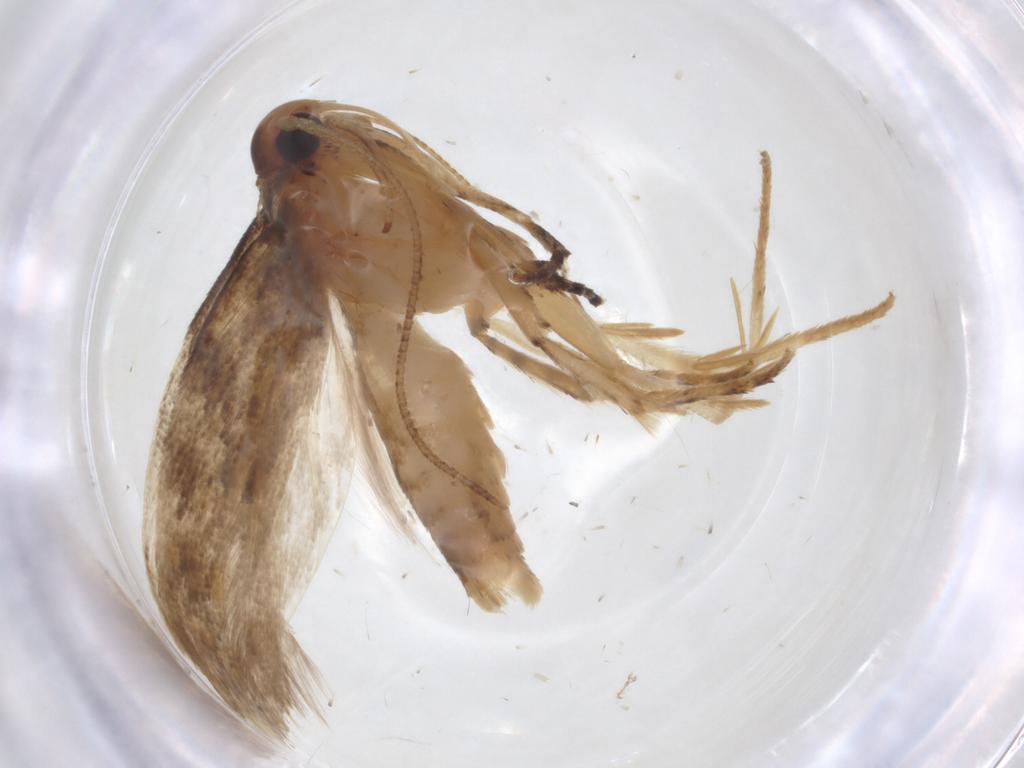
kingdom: Animalia
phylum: Arthropoda
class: Insecta
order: Lepidoptera
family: Gelechiidae
